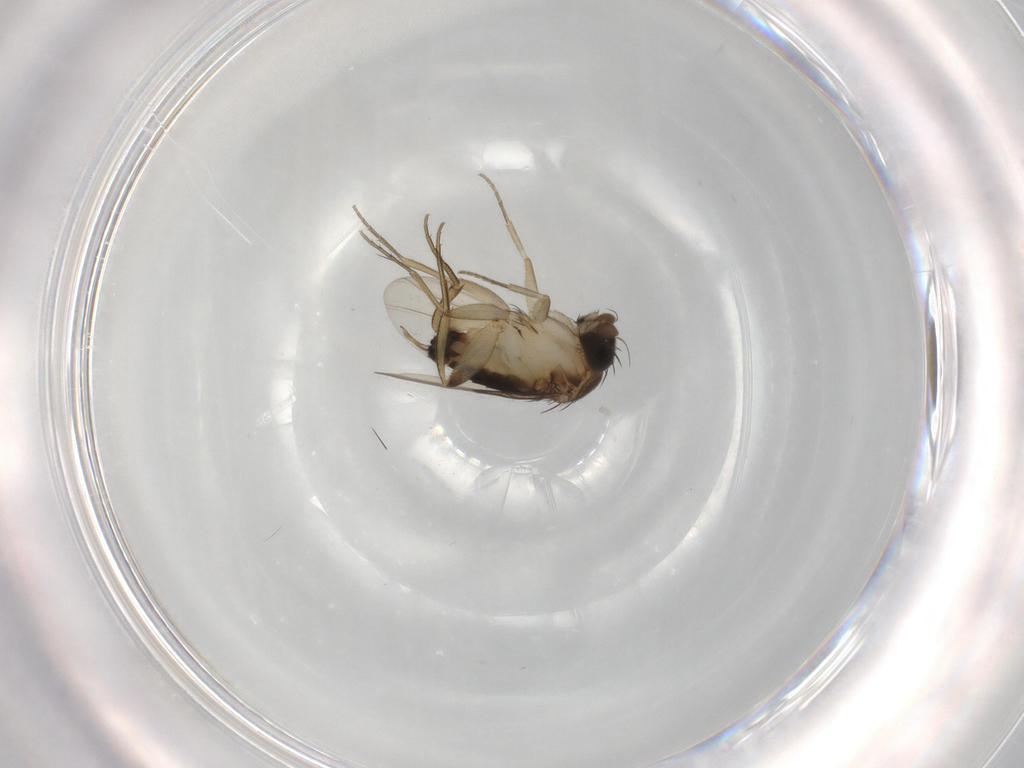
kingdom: Animalia
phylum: Arthropoda
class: Insecta
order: Diptera
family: Phoridae
